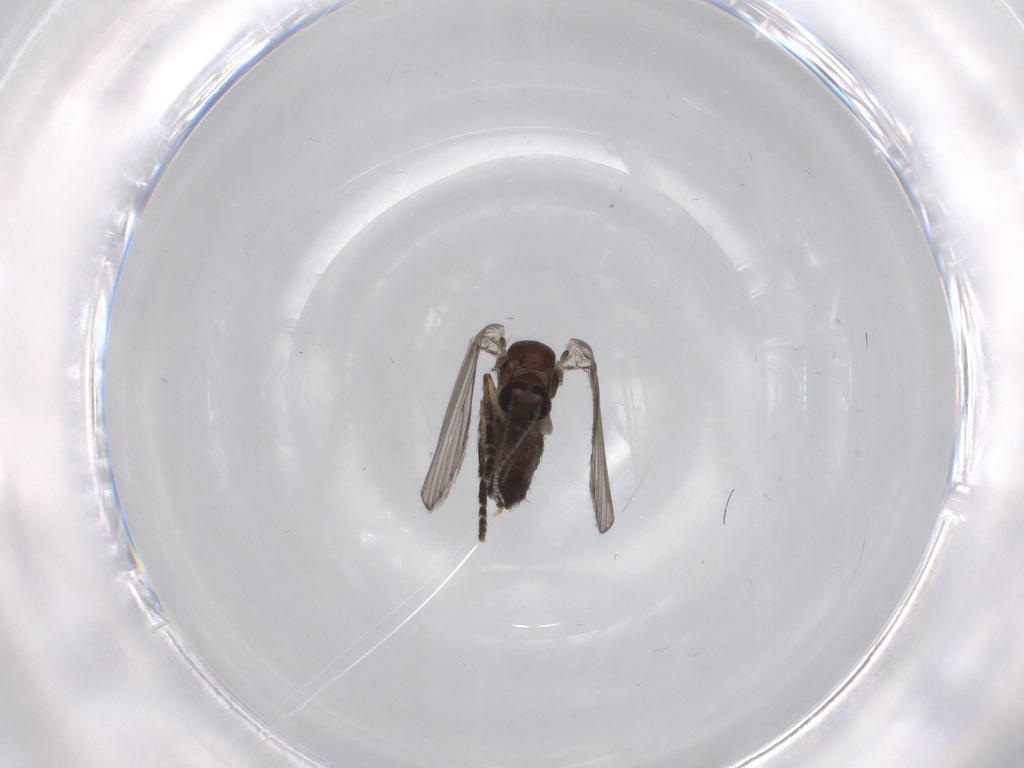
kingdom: Animalia
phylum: Arthropoda
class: Insecta
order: Diptera
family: Psychodidae
